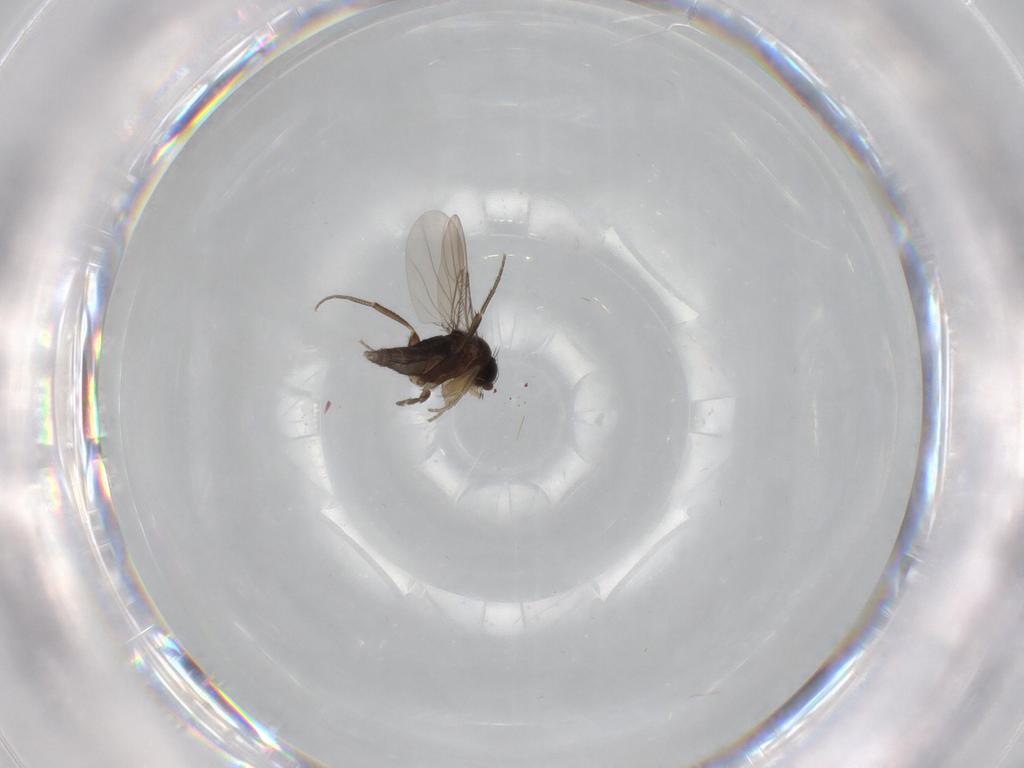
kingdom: Animalia
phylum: Arthropoda
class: Insecta
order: Diptera
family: Phoridae
